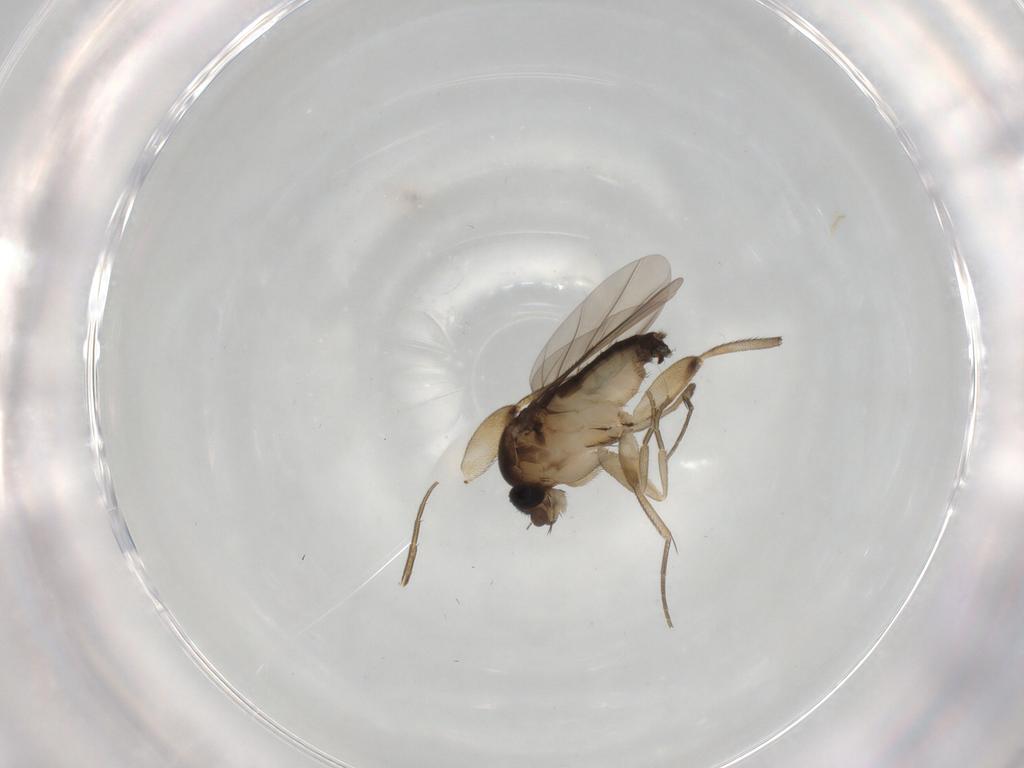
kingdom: Animalia
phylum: Arthropoda
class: Insecta
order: Diptera
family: Phoridae
